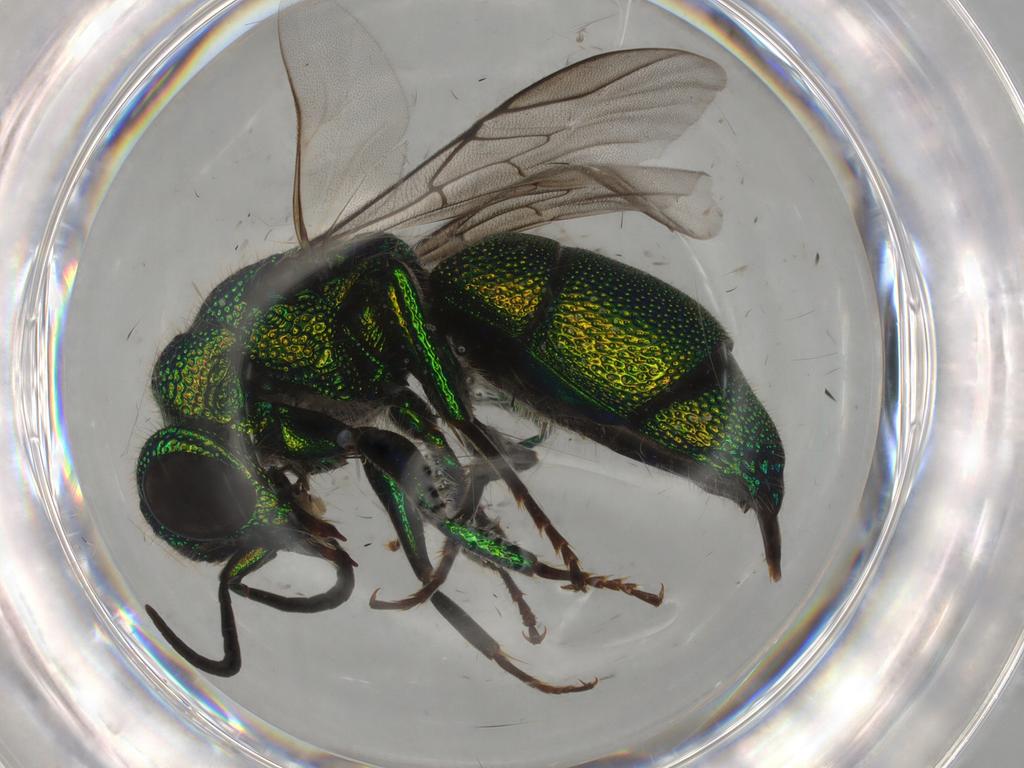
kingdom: Animalia
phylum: Arthropoda
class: Insecta
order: Hymenoptera
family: Chrysididae
